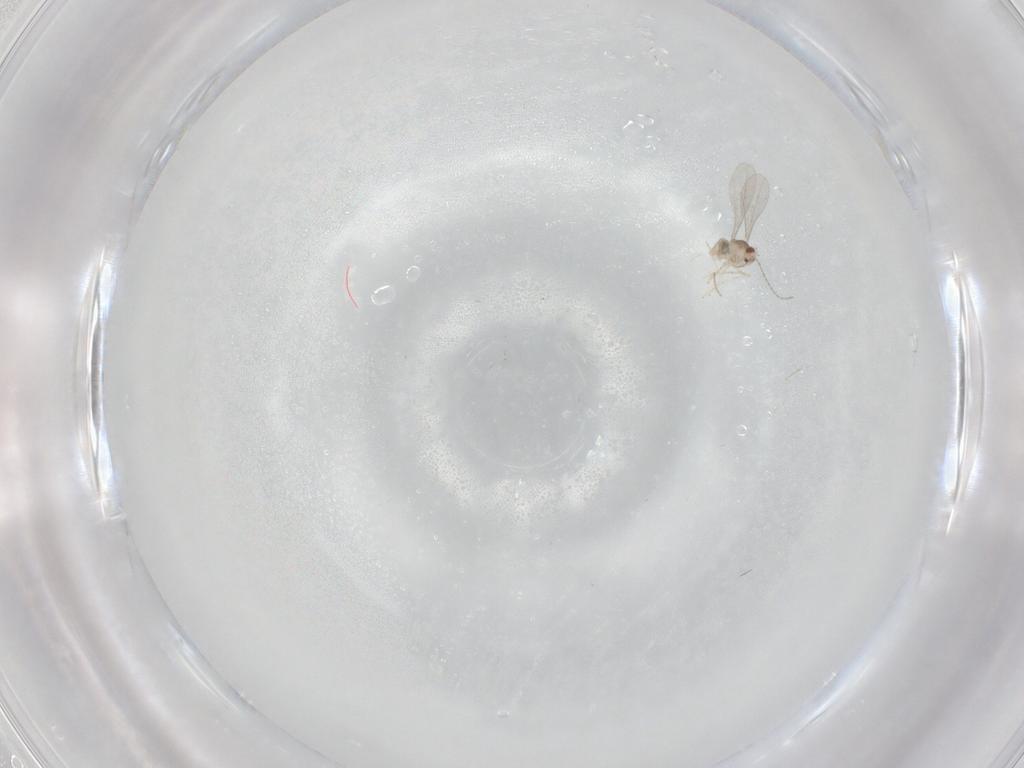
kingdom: Animalia
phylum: Arthropoda
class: Insecta
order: Diptera
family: Cecidomyiidae
